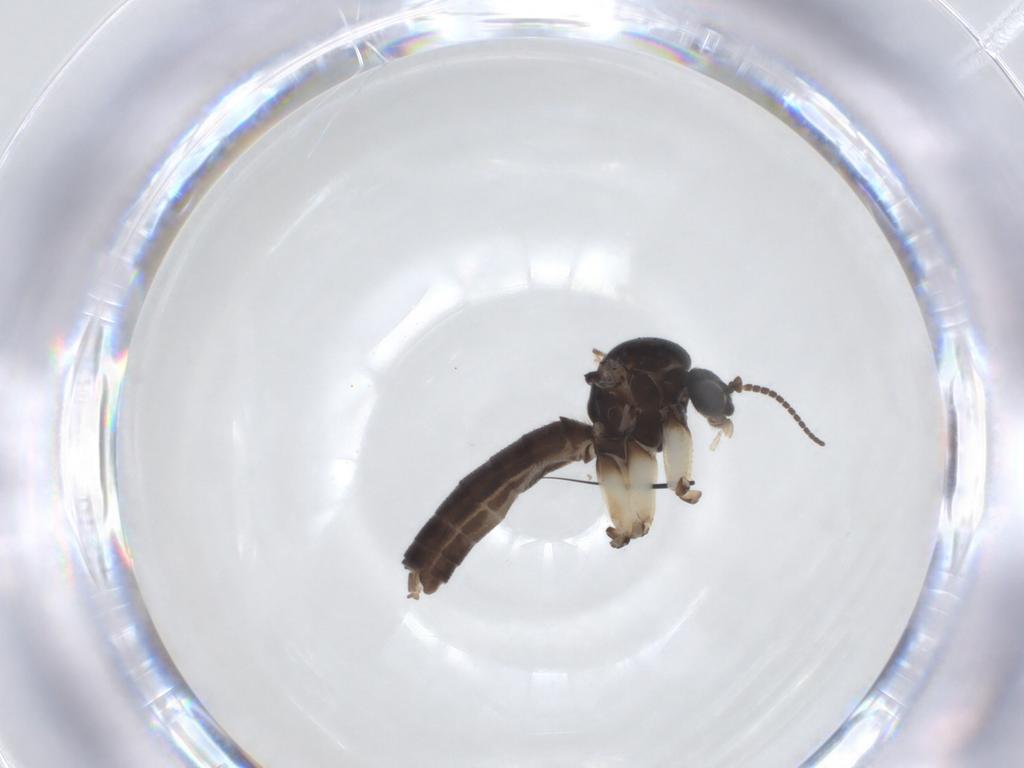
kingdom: Animalia
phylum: Arthropoda
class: Insecta
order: Diptera
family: Mycetophilidae
